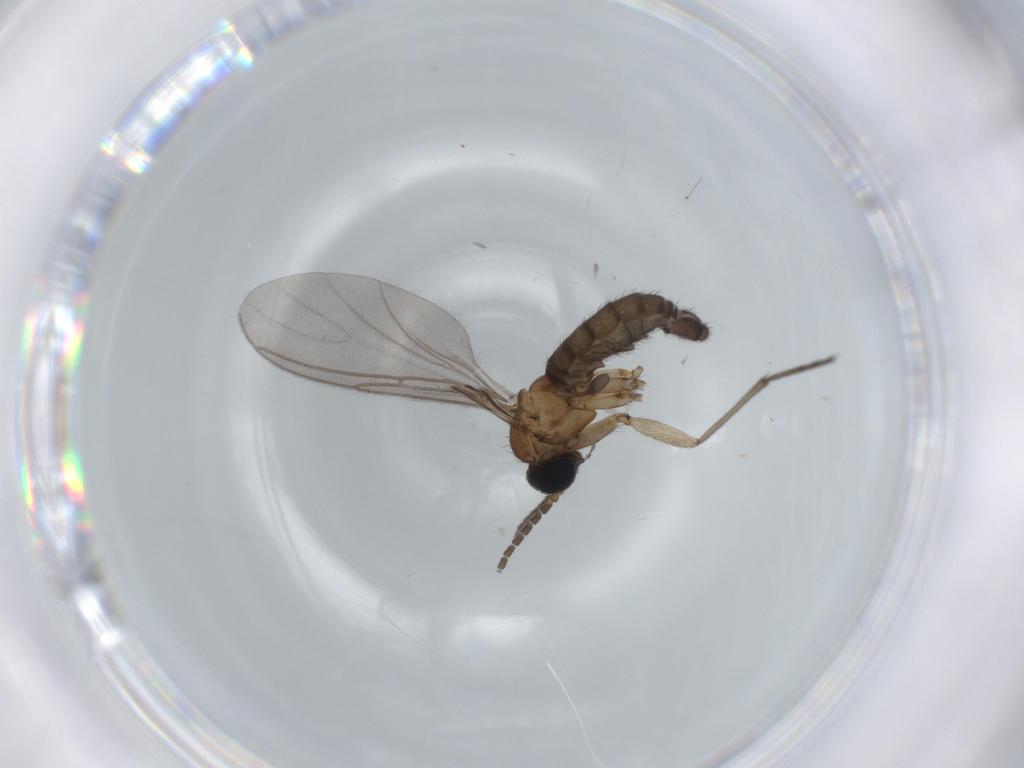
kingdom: Animalia
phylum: Arthropoda
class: Insecta
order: Diptera
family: Sciaridae
